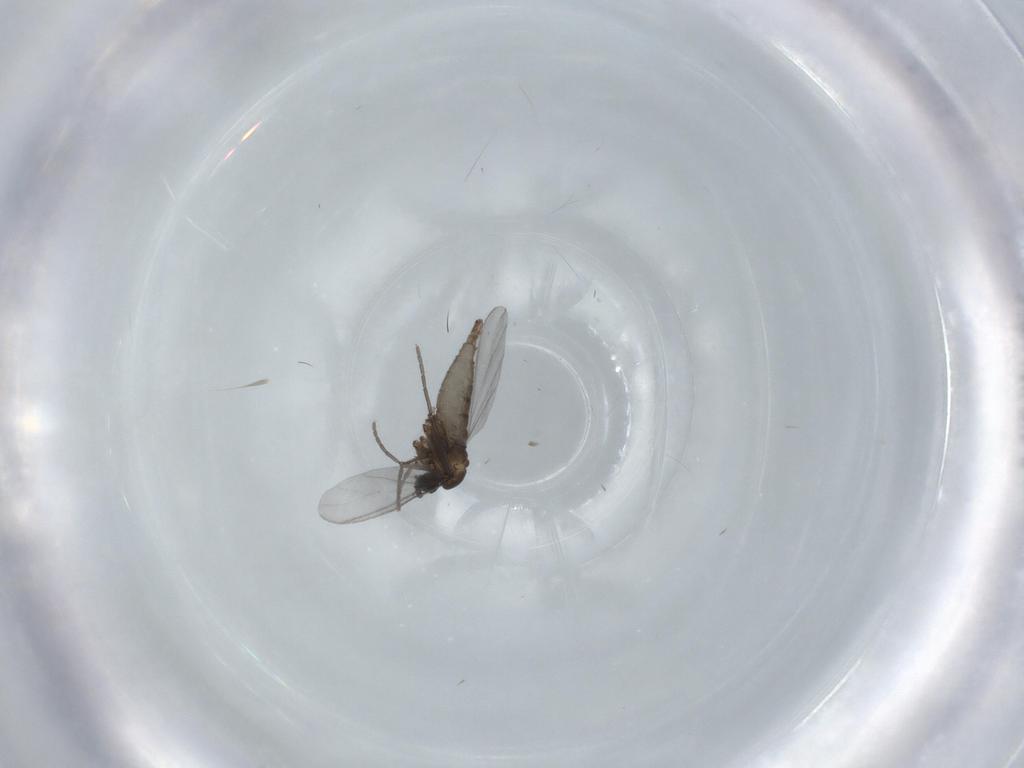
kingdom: Animalia
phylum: Arthropoda
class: Insecta
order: Diptera
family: Sciaridae
